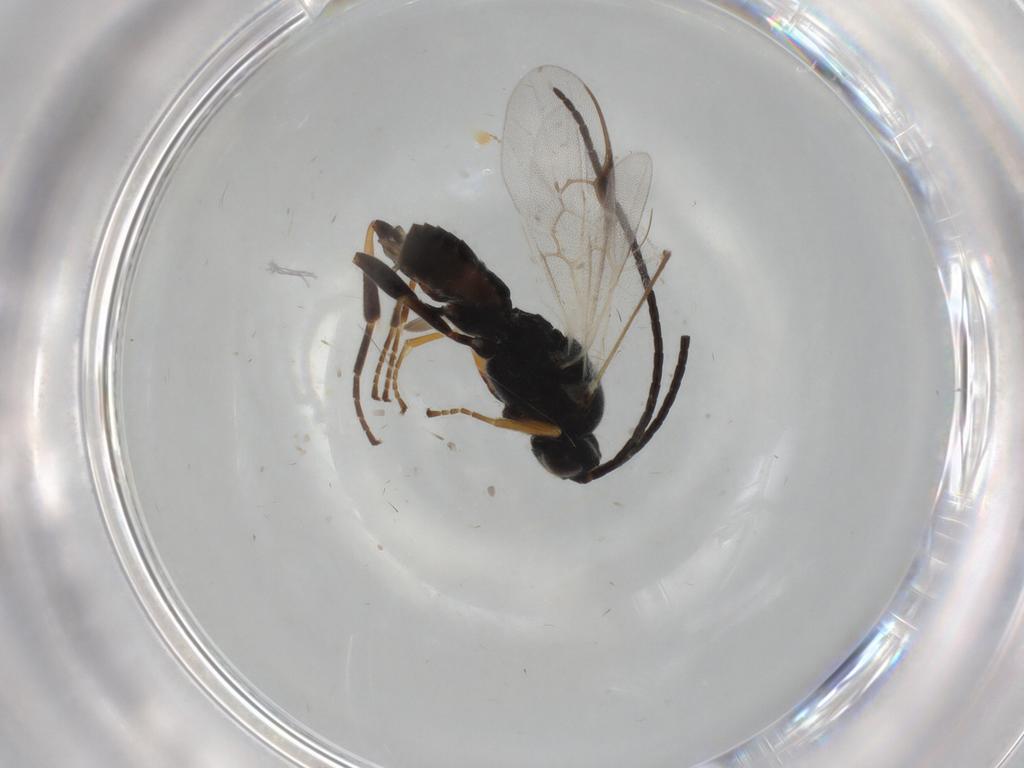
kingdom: Animalia
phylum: Arthropoda
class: Insecta
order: Hymenoptera
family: Braconidae
